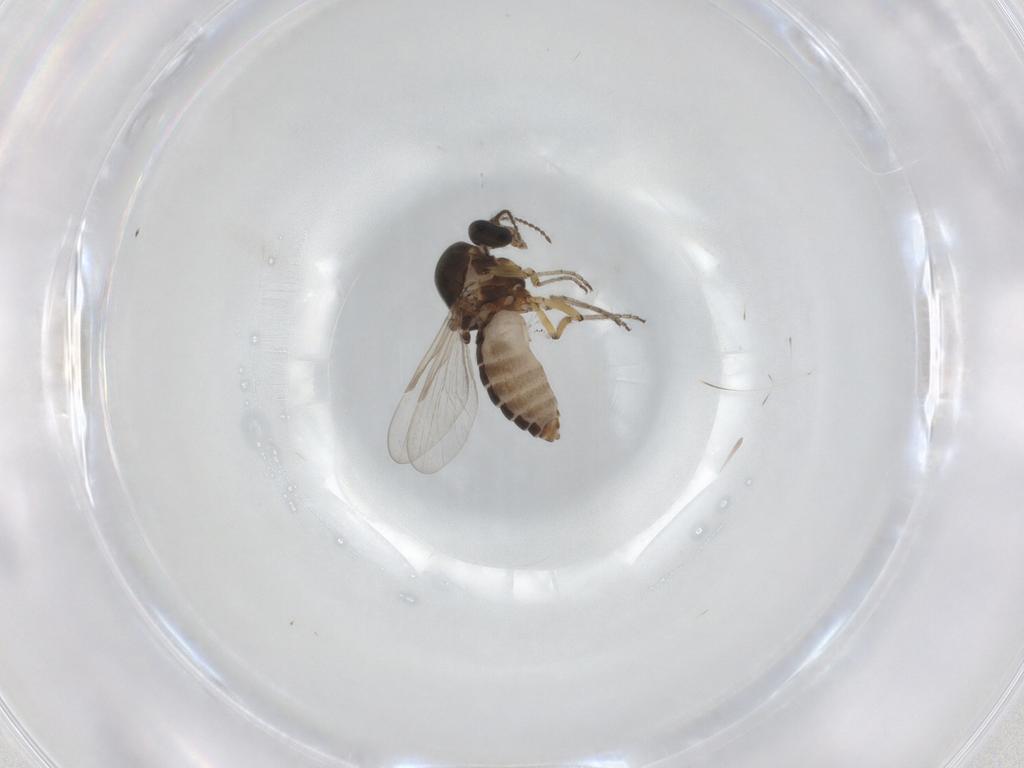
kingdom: Animalia
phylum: Arthropoda
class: Insecta
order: Diptera
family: Ceratopogonidae
